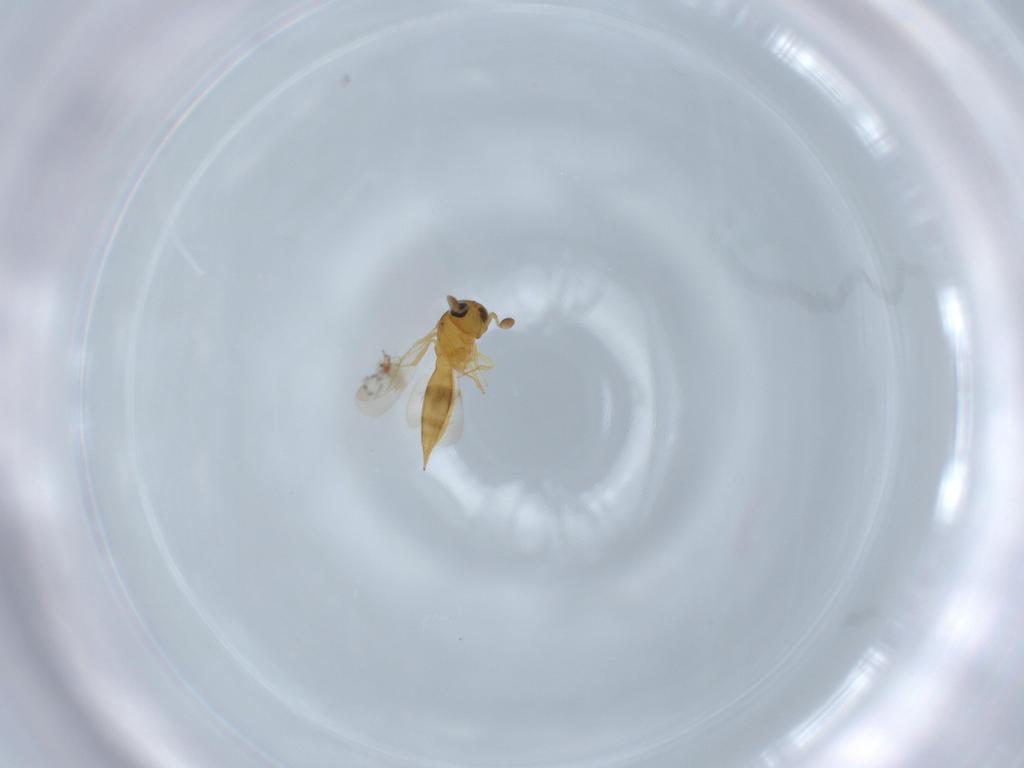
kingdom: Animalia
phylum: Arthropoda
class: Insecta
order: Hymenoptera
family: Scelionidae
